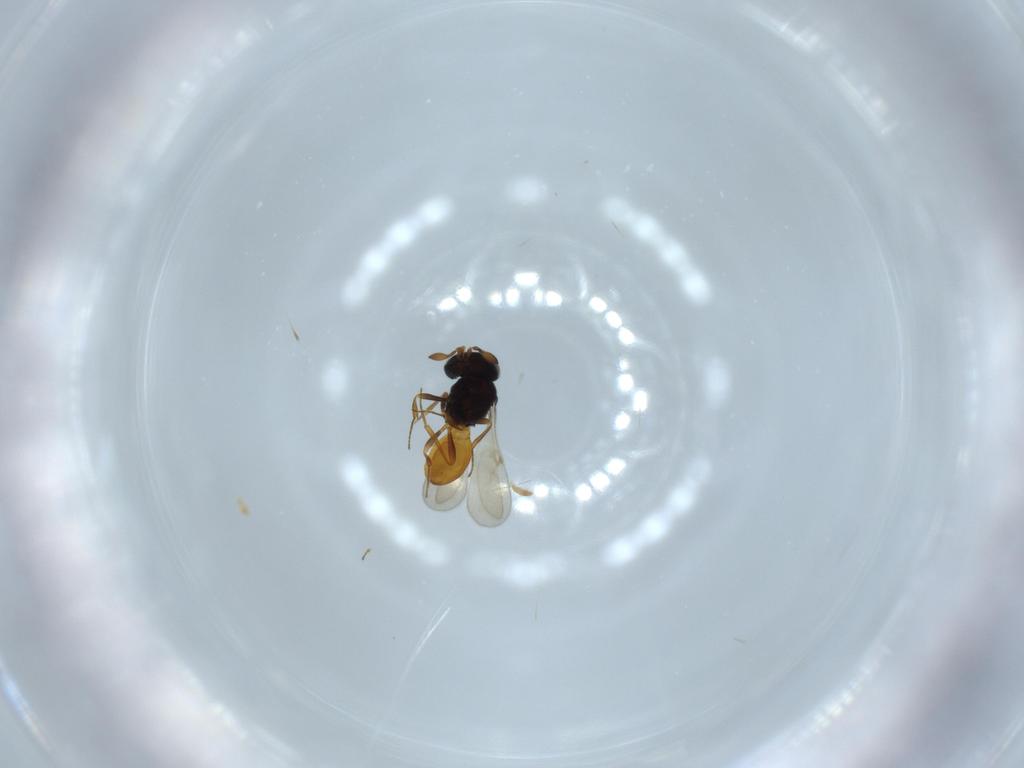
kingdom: Animalia
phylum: Arthropoda
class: Insecta
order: Hymenoptera
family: Scelionidae
